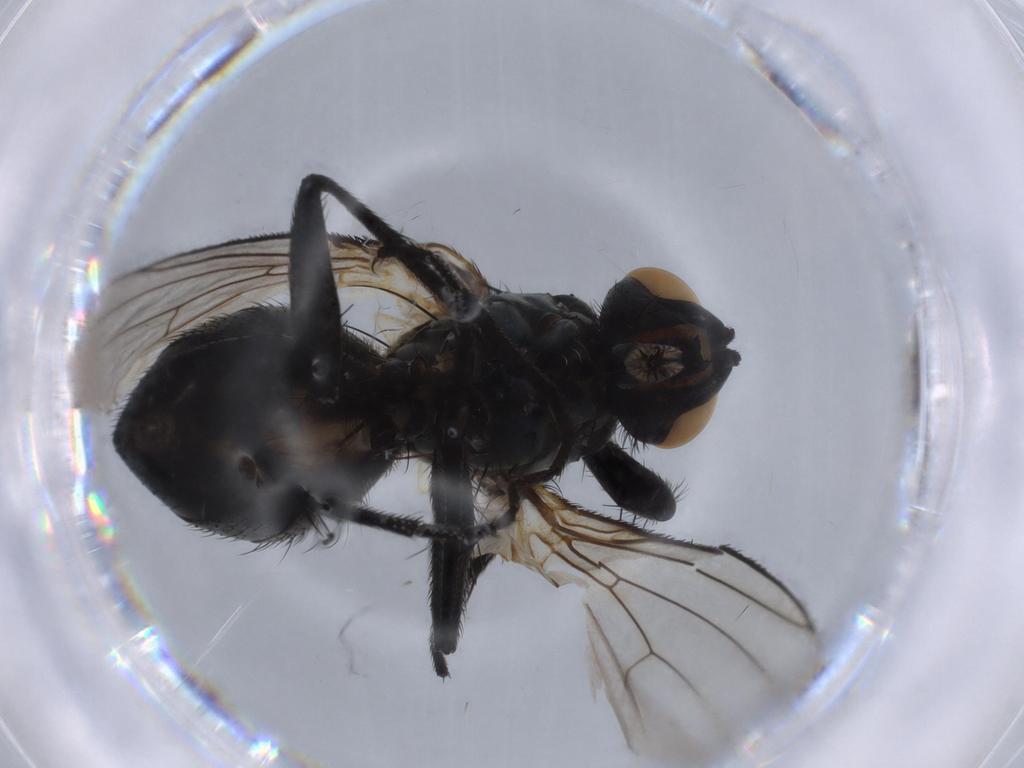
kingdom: Animalia
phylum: Arthropoda
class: Insecta
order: Diptera
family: Keroplatidae
